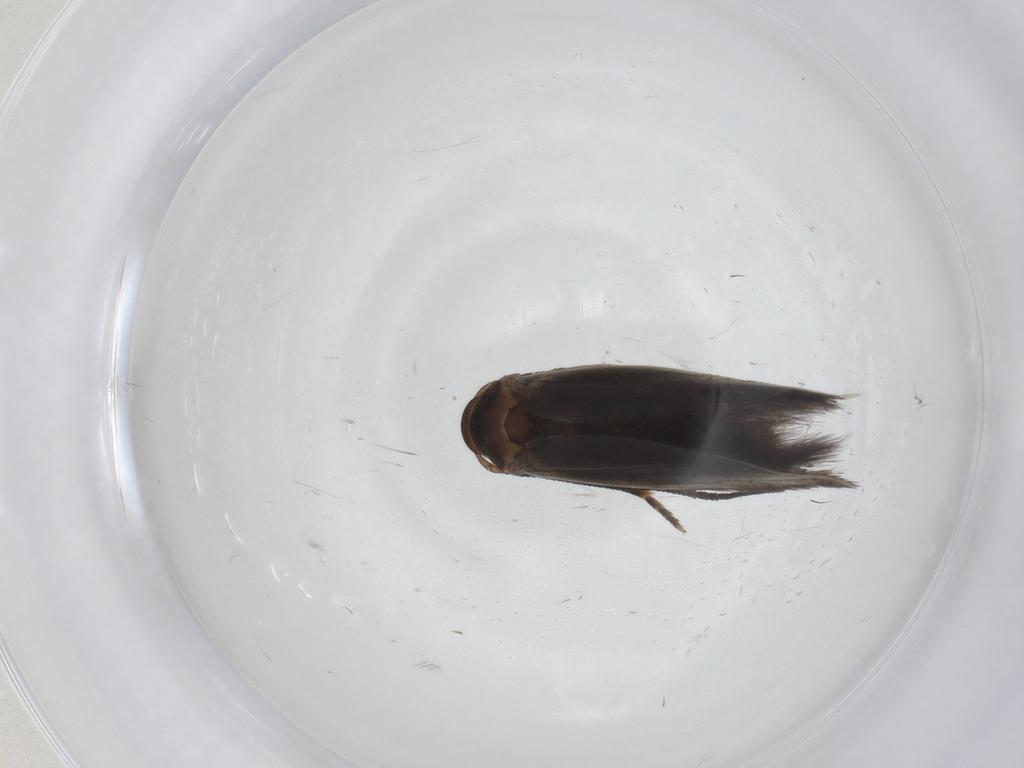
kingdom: Animalia
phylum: Arthropoda
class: Insecta
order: Lepidoptera
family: Elachistidae
